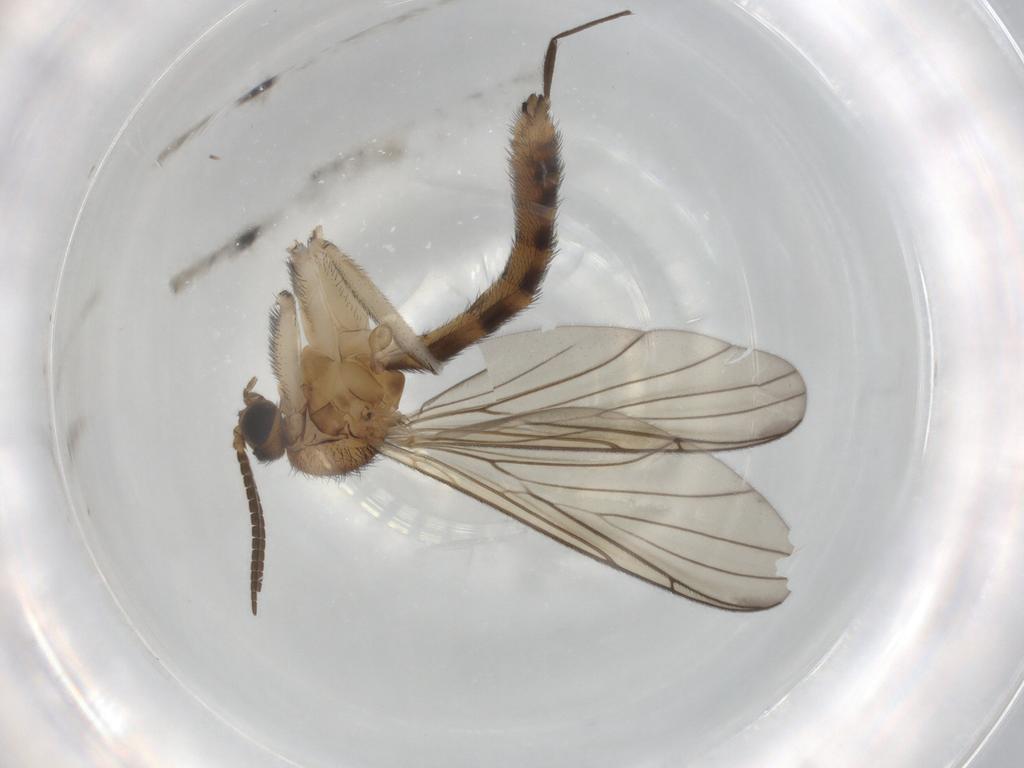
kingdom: Animalia
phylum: Arthropoda
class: Insecta
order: Diptera
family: Keroplatidae
